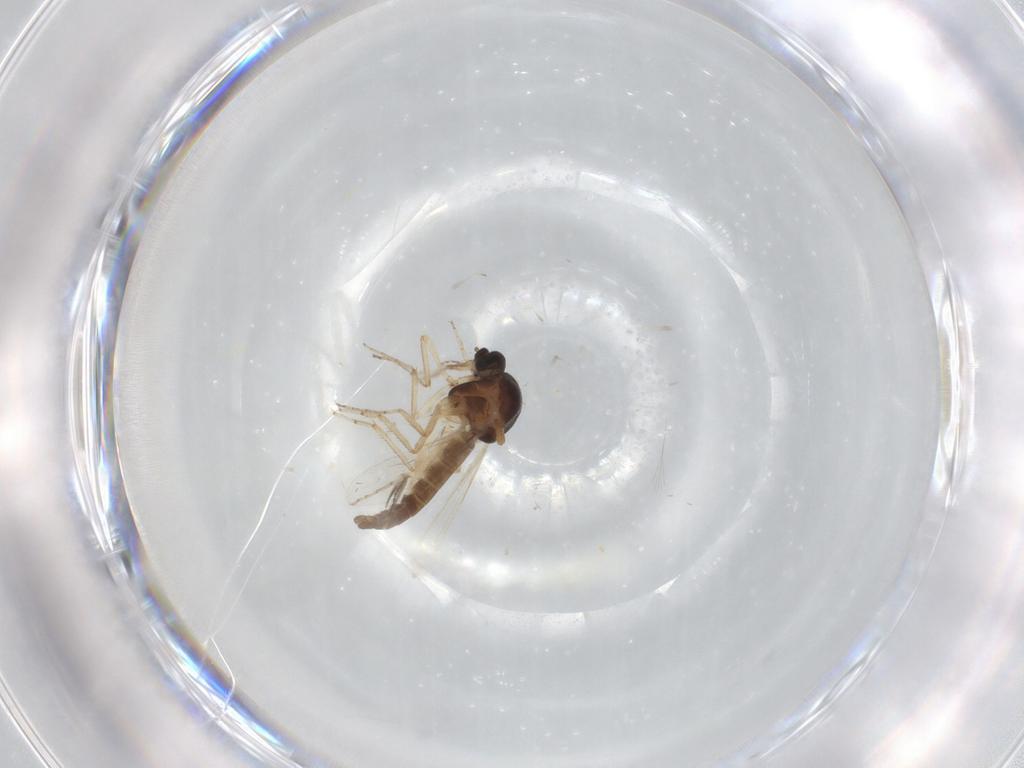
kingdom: Animalia
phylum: Arthropoda
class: Insecta
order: Diptera
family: Ceratopogonidae
